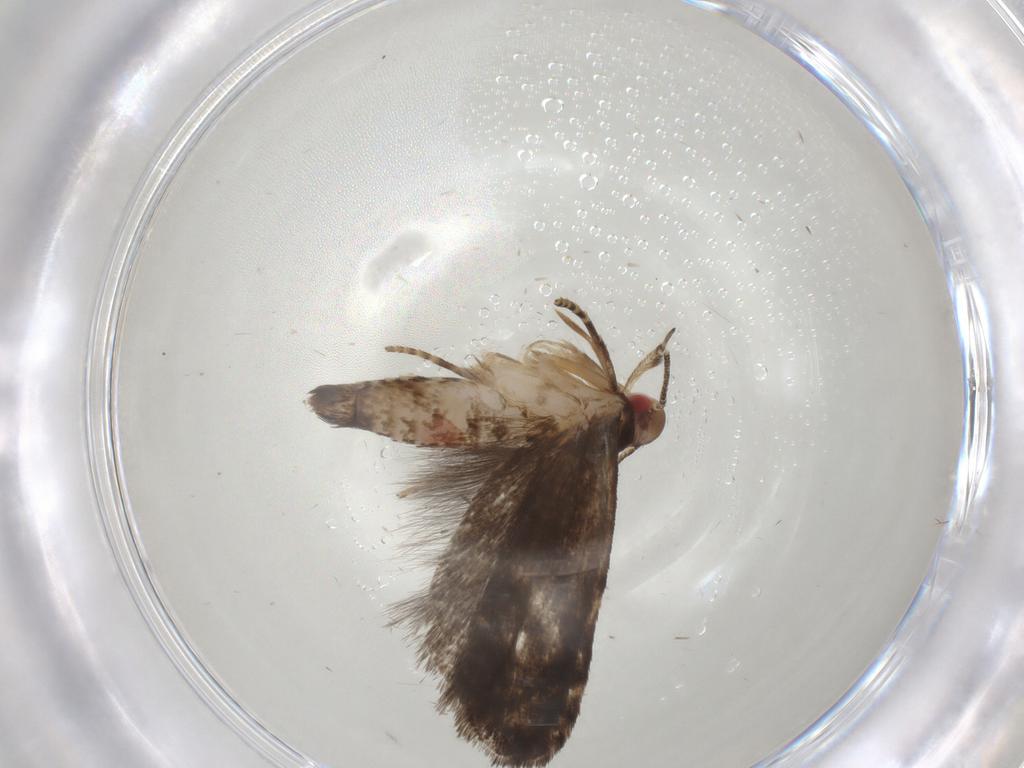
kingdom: Animalia
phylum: Arthropoda
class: Insecta
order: Lepidoptera
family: Gelechiidae
